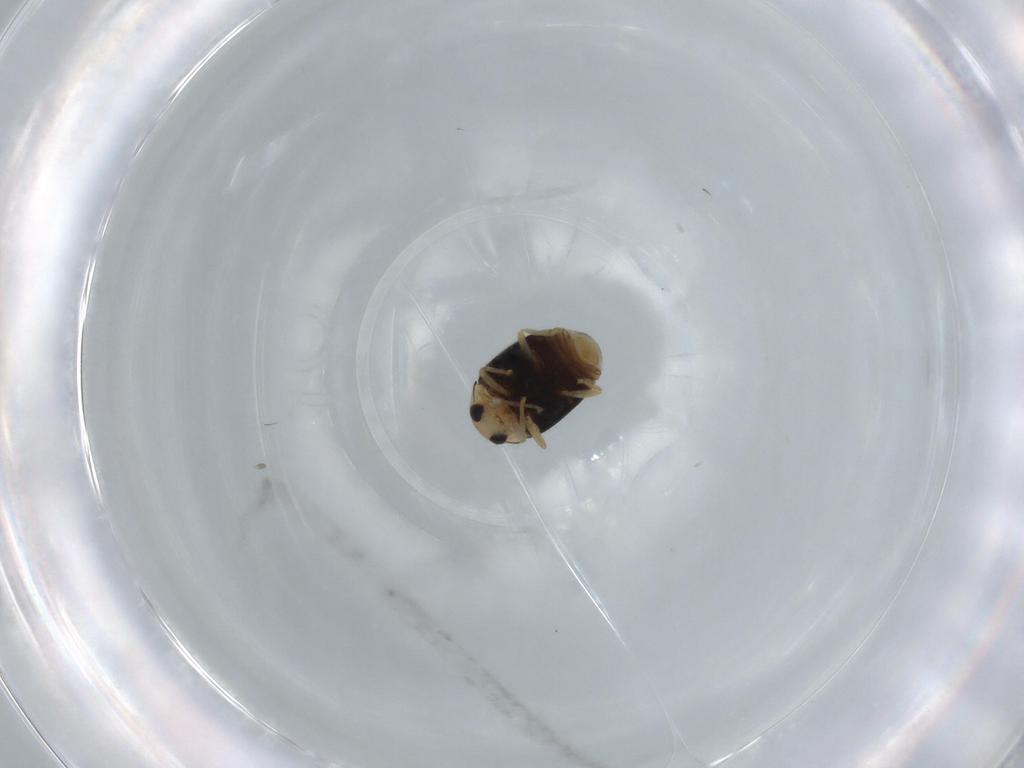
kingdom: Animalia
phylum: Arthropoda
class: Insecta
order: Coleoptera
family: Coccinellidae
